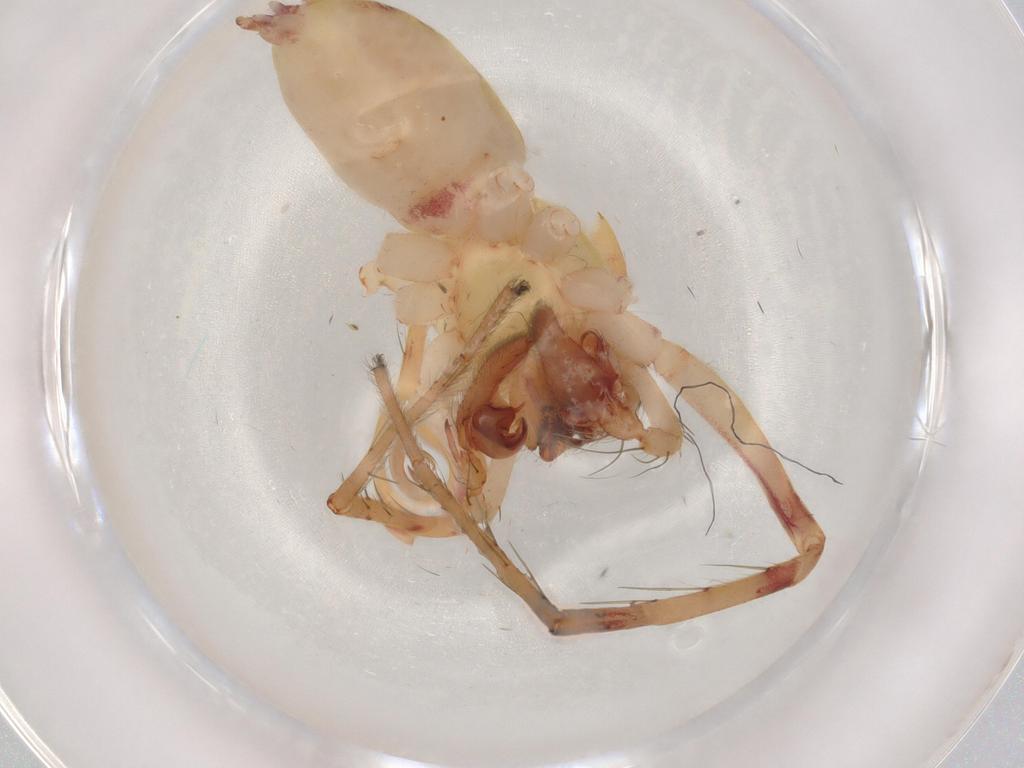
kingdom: Animalia
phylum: Arthropoda
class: Arachnida
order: Araneae
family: Anyphaenidae
